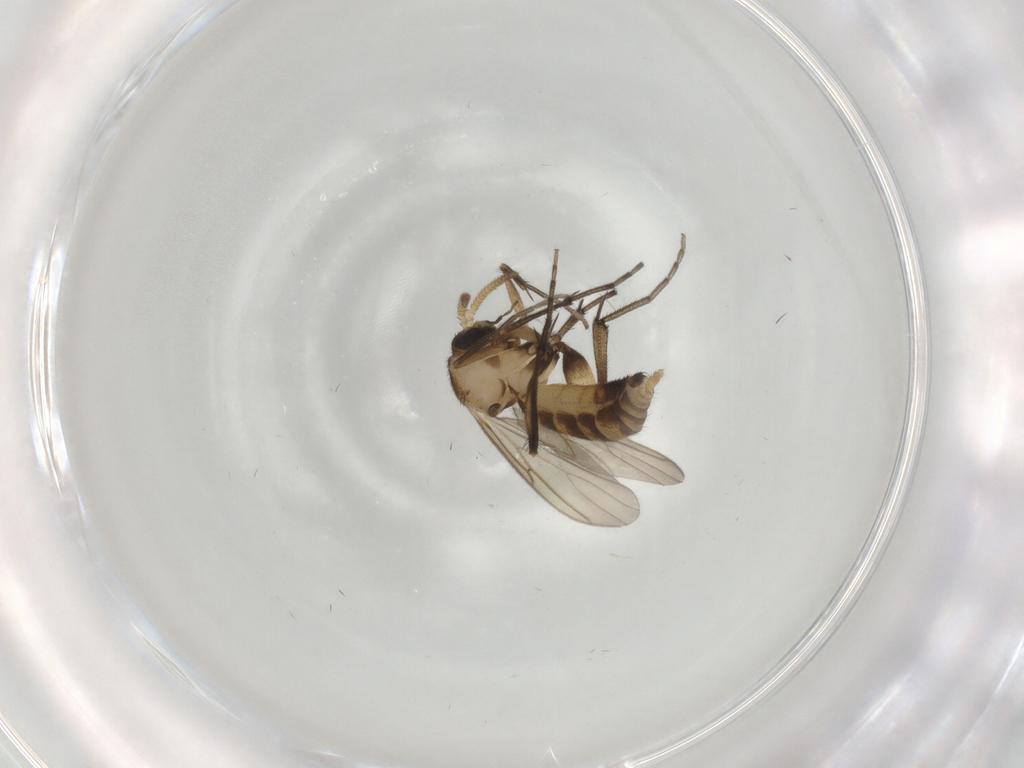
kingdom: Animalia
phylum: Arthropoda
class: Insecta
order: Diptera
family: Mycetophilidae
